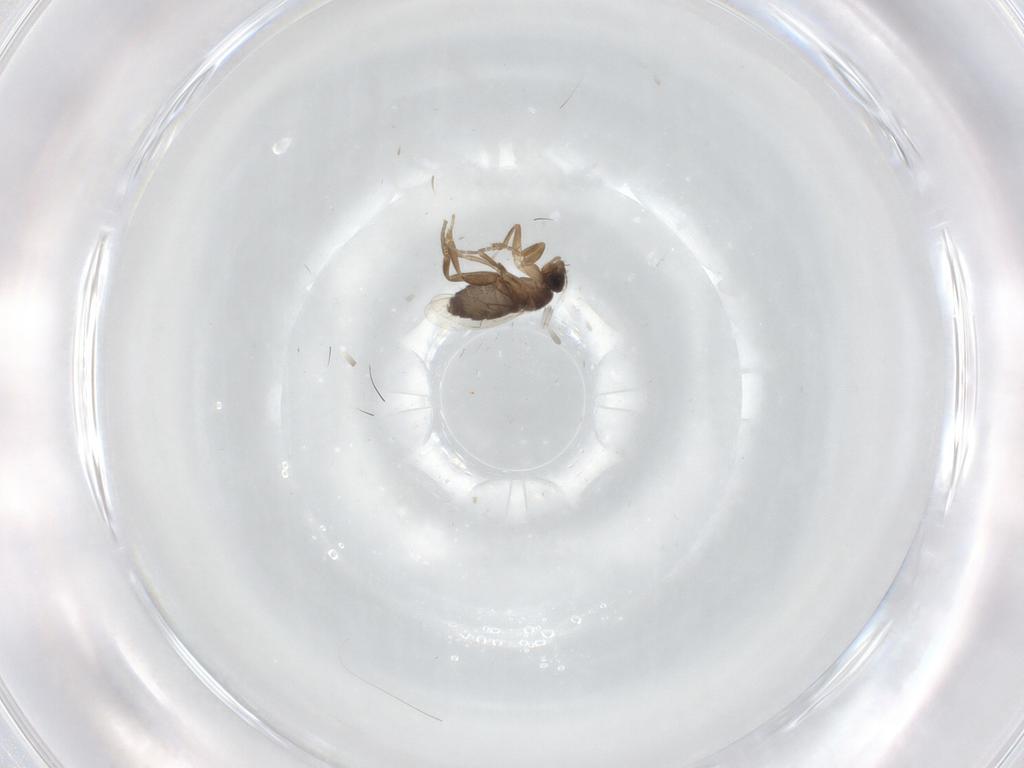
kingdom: Animalia
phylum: Arthropoda
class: Insecta
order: Diptera
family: Phoridae
